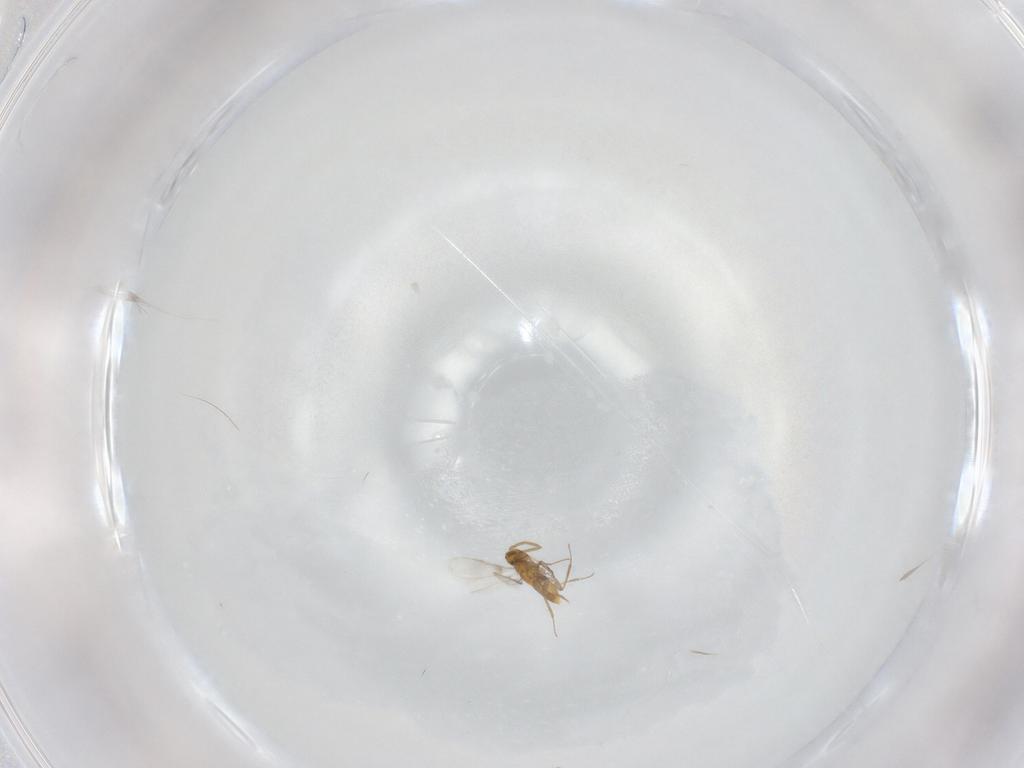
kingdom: Animalia
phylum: Arthropoda
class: Insecta
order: Hymenoptera
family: Aphelinidae
